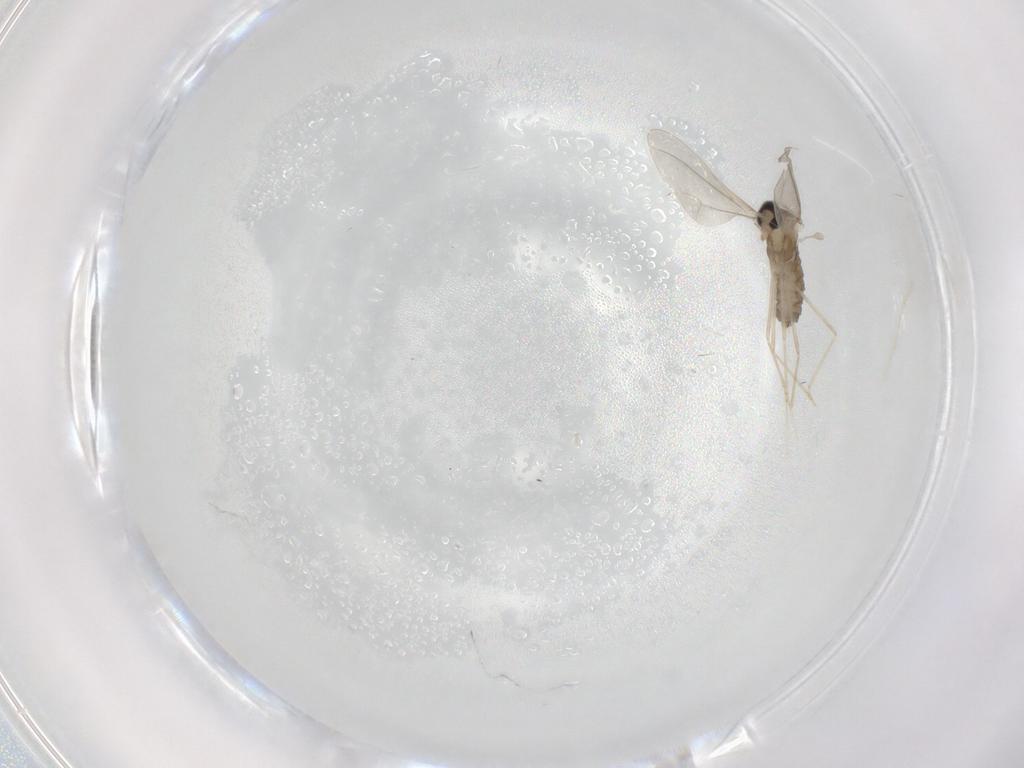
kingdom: Animalia
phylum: Arthropoda
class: Insecta
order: Diptera
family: Cecidomyiidae
